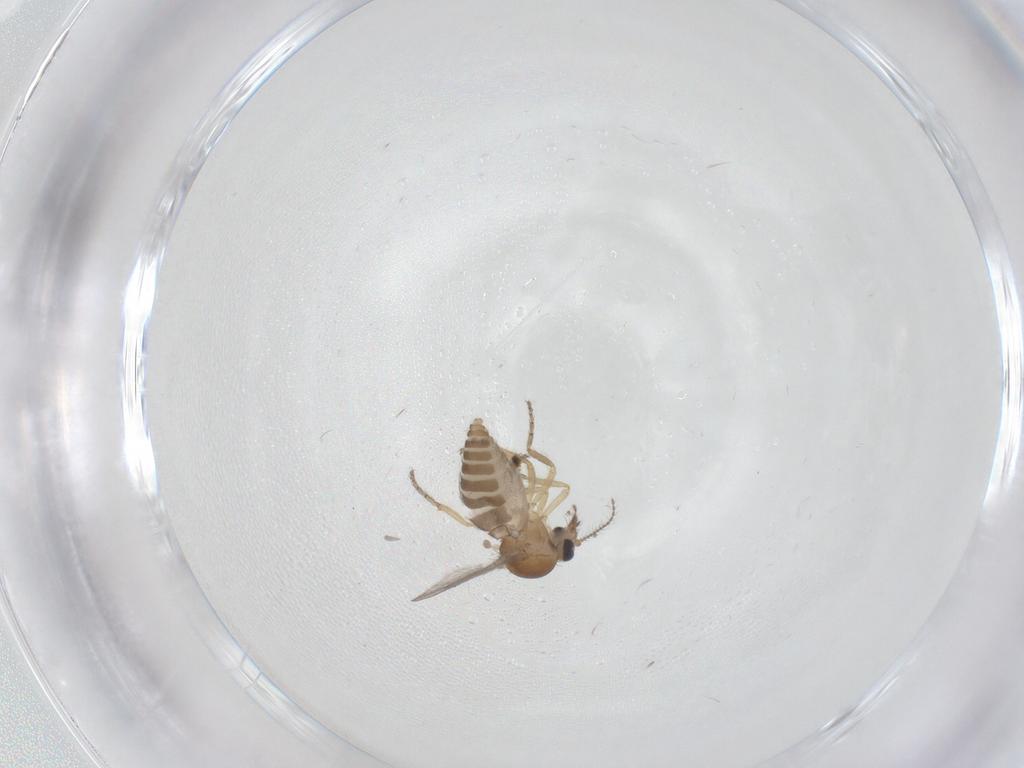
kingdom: Animalia
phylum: Arthropoda
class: Insecta
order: Diptera
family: Ceratopogonidae
